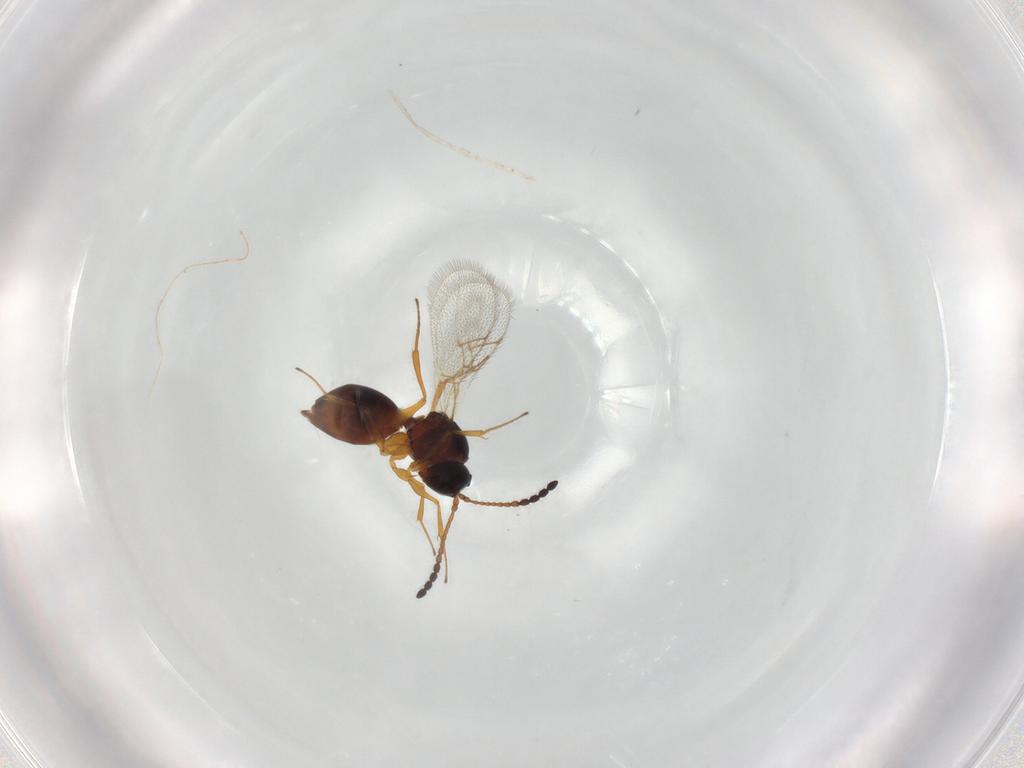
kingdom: Animalia
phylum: Arthropoda
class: Insecta
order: Hymenoptera
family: Figitidae
